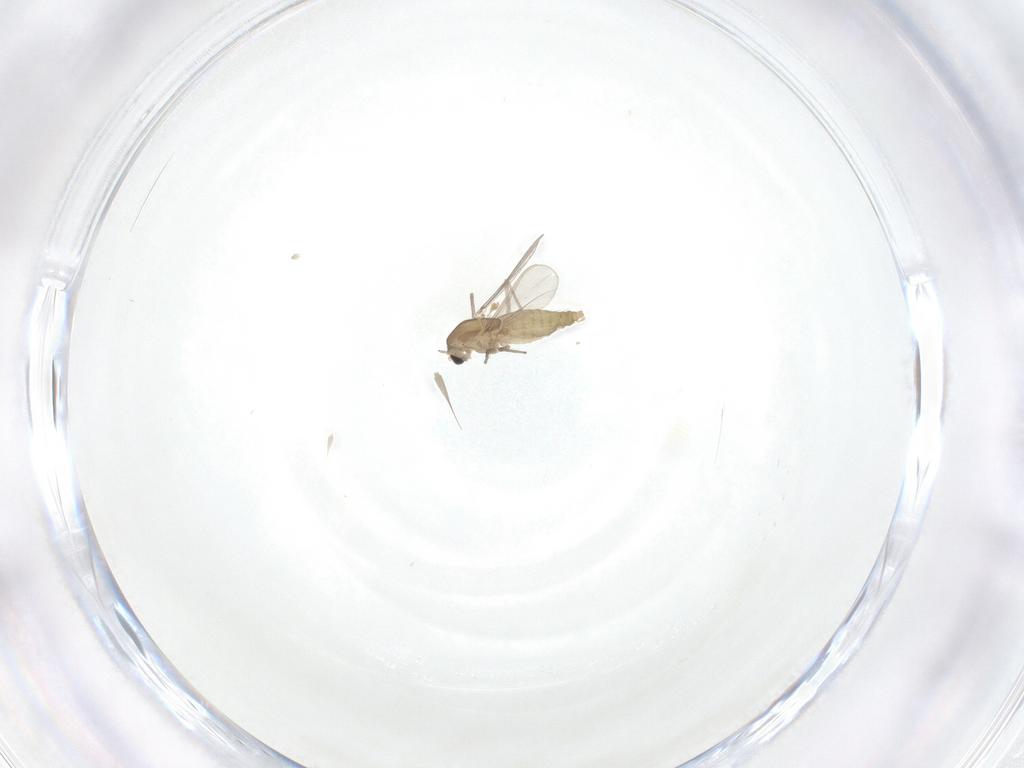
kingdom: Animalia
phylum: Arthropoda
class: Insecta
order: Diptera
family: Chironomidae
